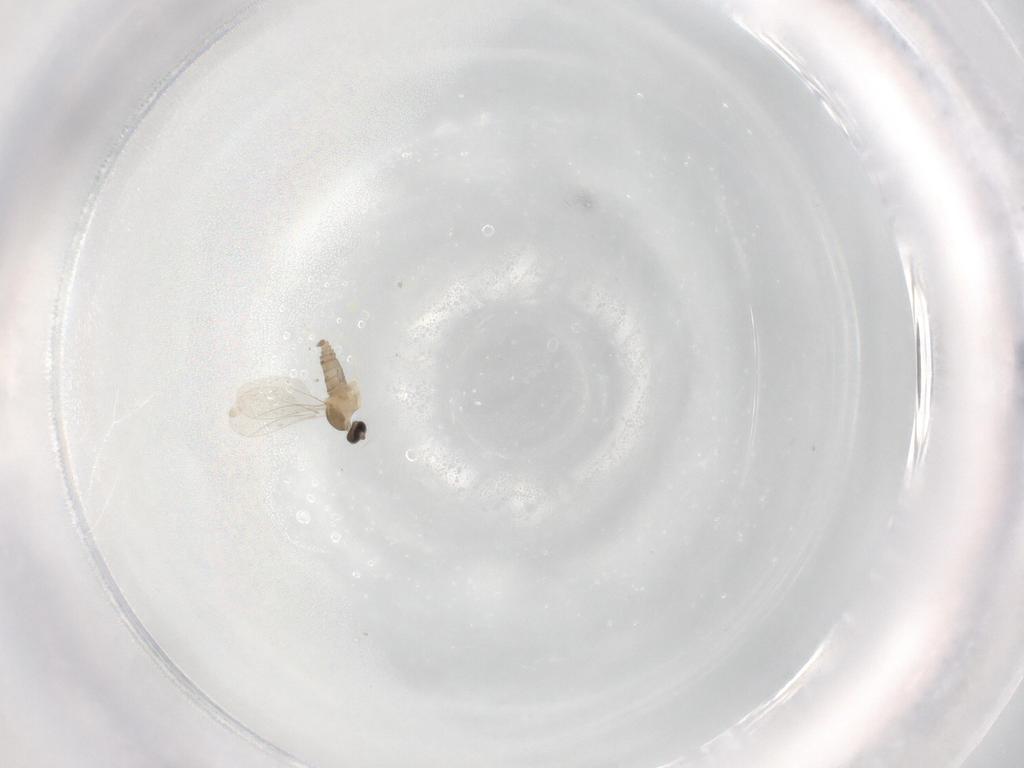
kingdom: Animalia
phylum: Arthropoda
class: Insecta
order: Diptera
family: Cecidomyiidae
